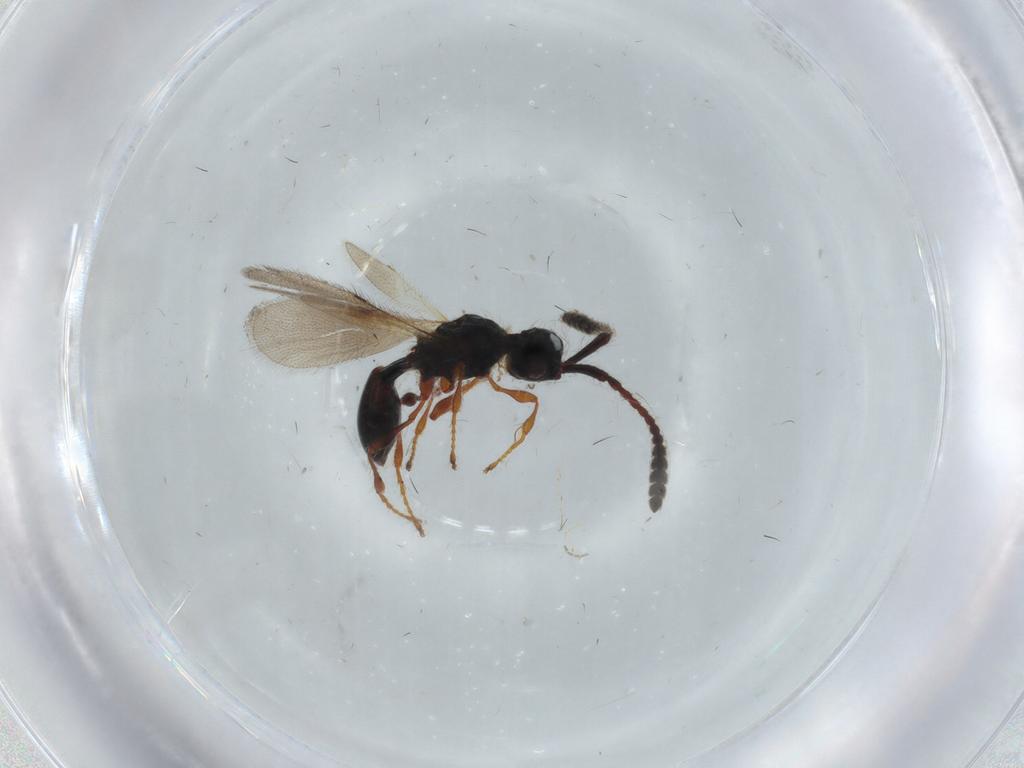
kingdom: Animalia
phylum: Arthropoda
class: Insecta
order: Hymenoptera
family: Diapriidae
